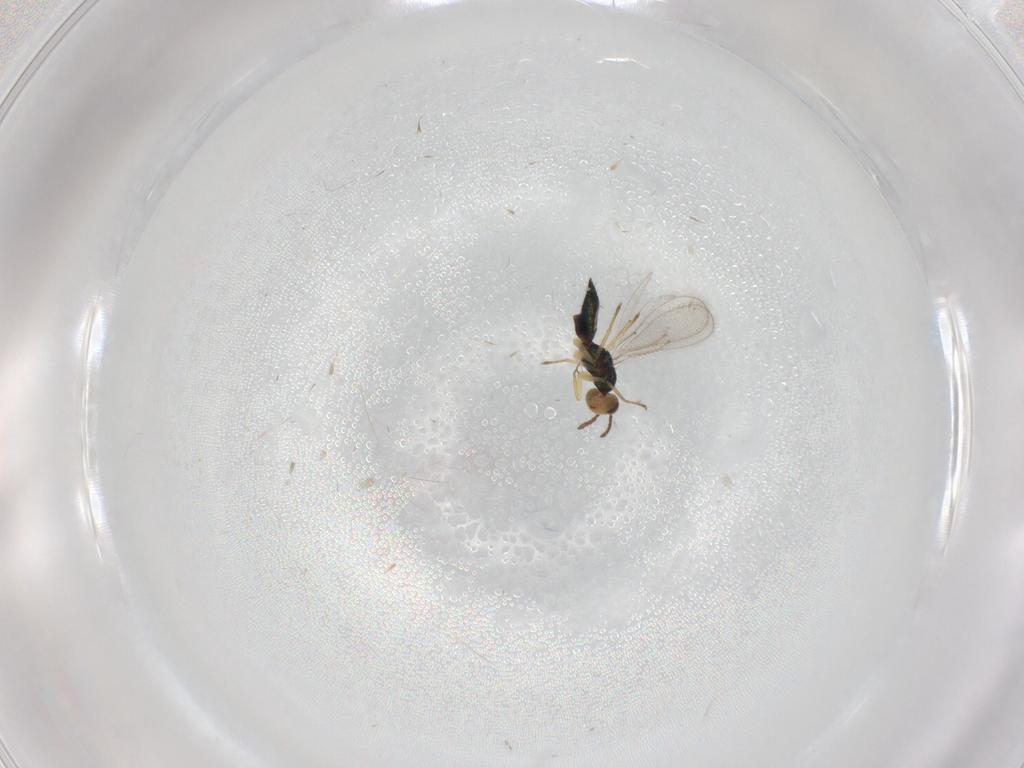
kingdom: Animalia
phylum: Arthropoda
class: Insecta
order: Hymenoptera
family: Eulophidae
